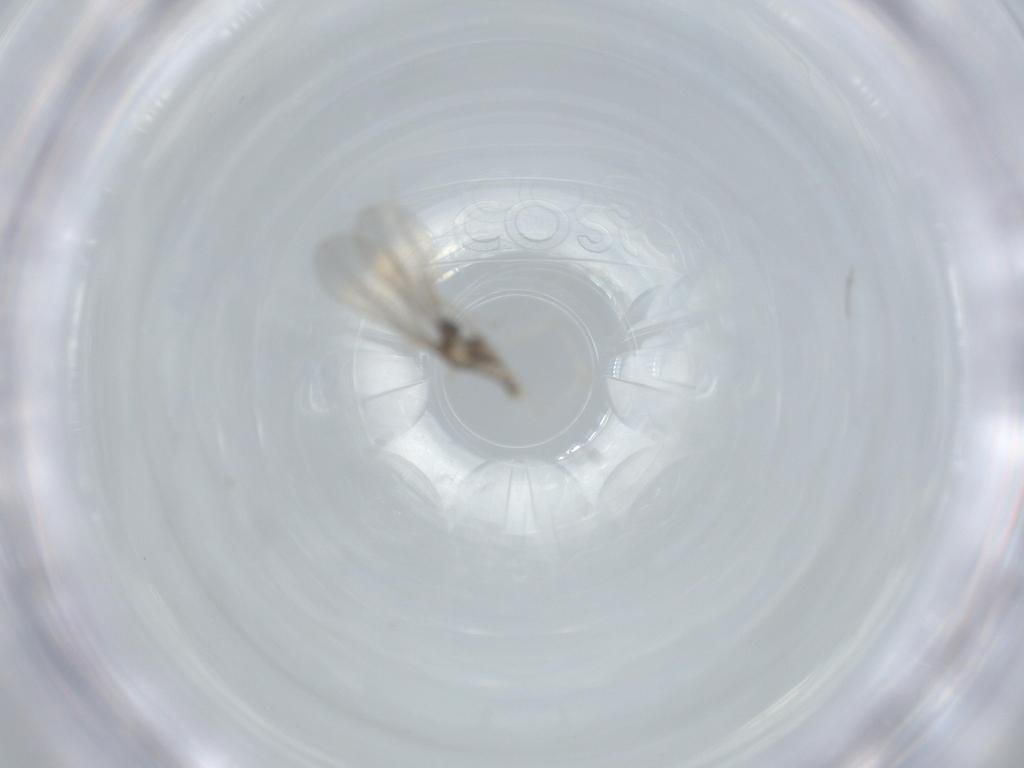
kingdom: Animalia
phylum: Arthropoda
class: Insecta
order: Diptera
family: Cecidomyiidae
